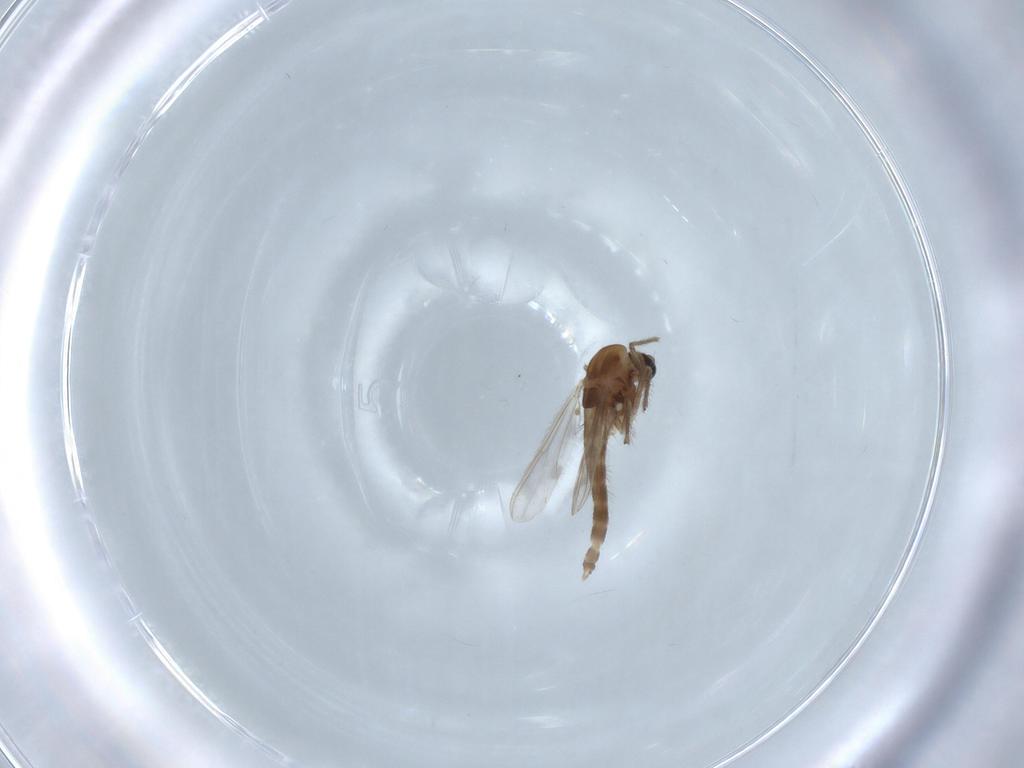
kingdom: Animalia
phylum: Arthropoda
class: Insecta
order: Diptera
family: Chironomidae
